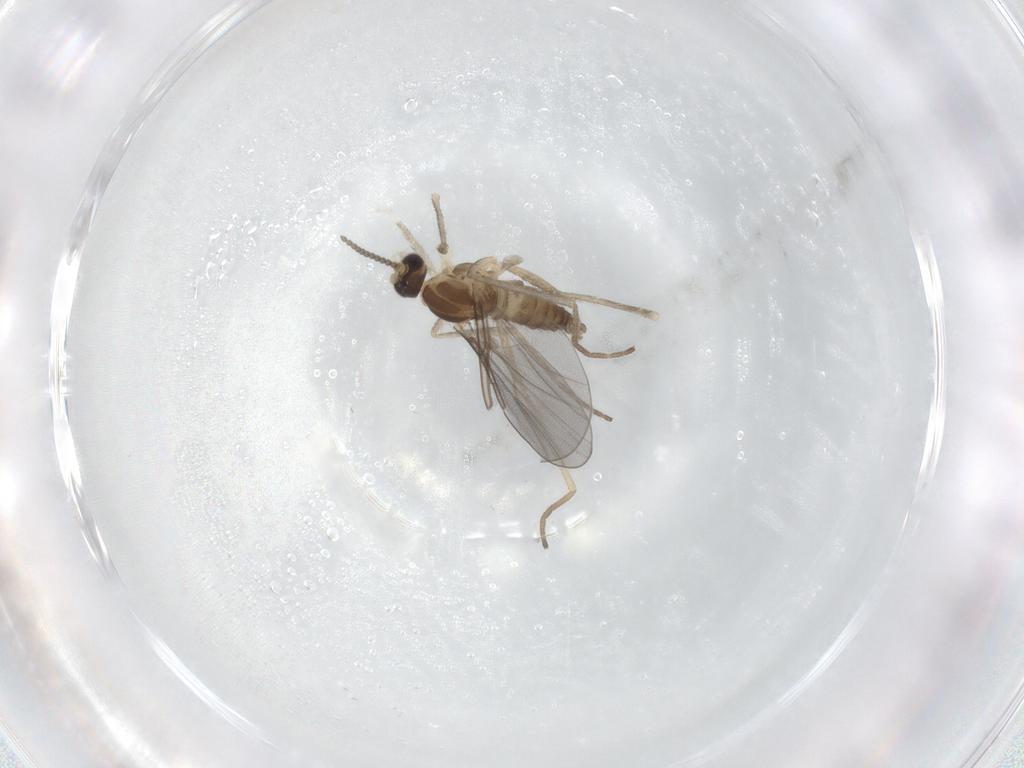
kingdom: Animalia
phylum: Arthropoda
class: Insecta
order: Diptera
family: Cecidomyiidae
